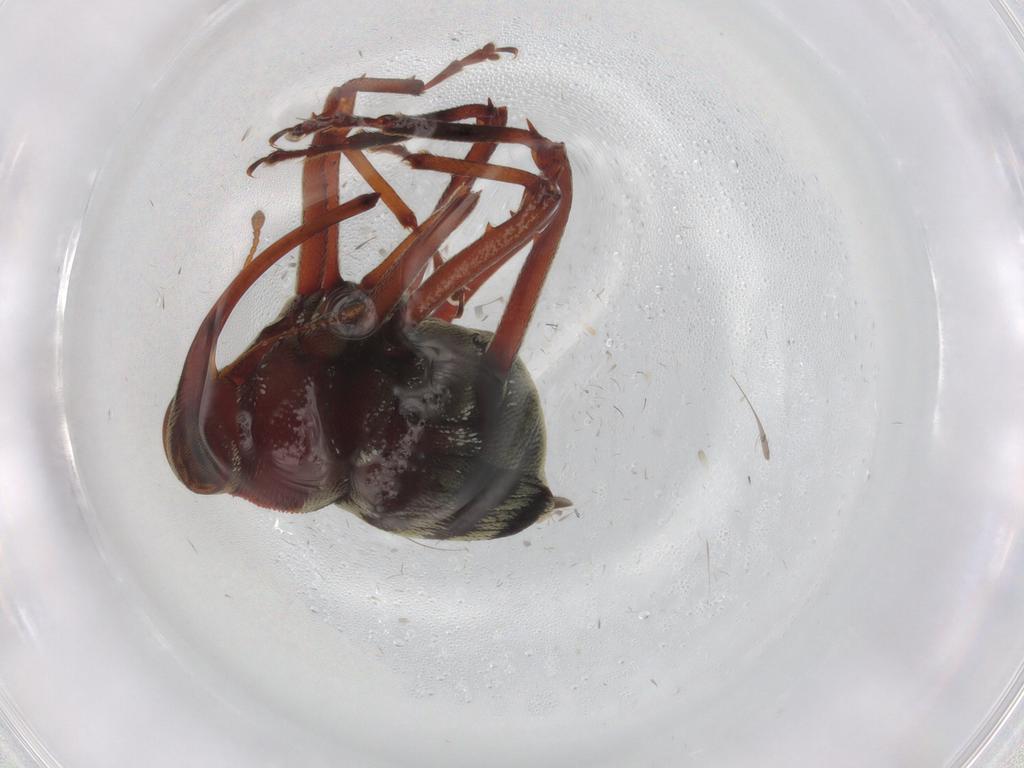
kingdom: Animalia
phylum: Arthropoda
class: Insecta
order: Coleoptera
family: Curculionidae
